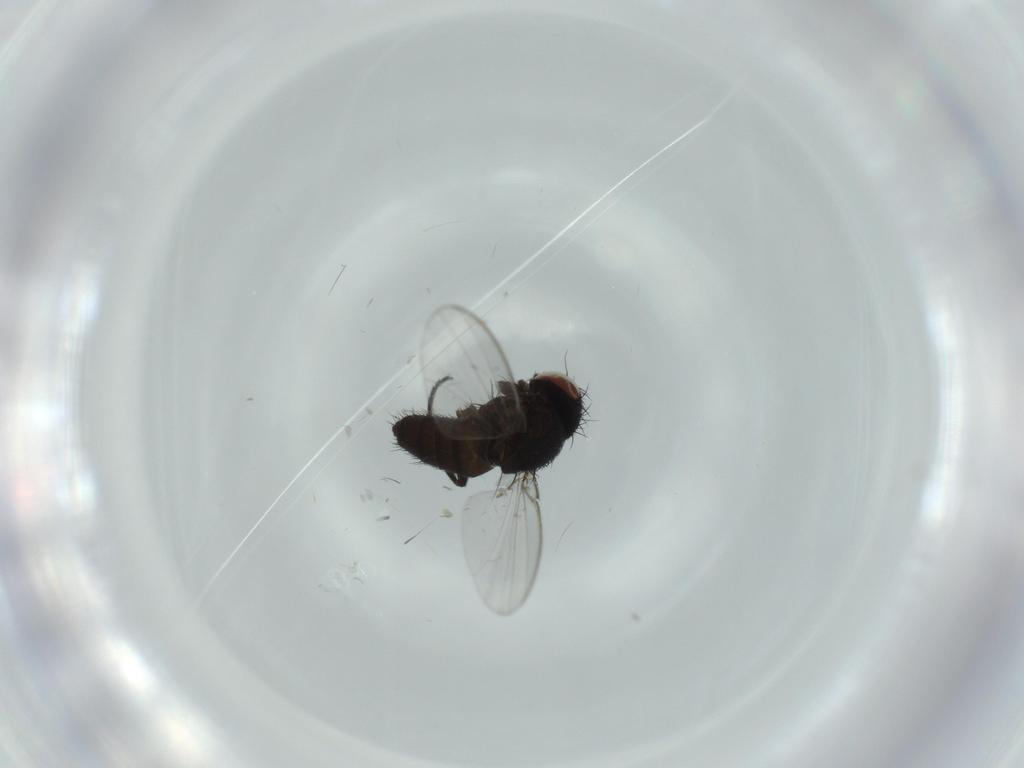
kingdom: Animalia
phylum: Arthropoda
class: Insecta
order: Diptera
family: Milichiidae
